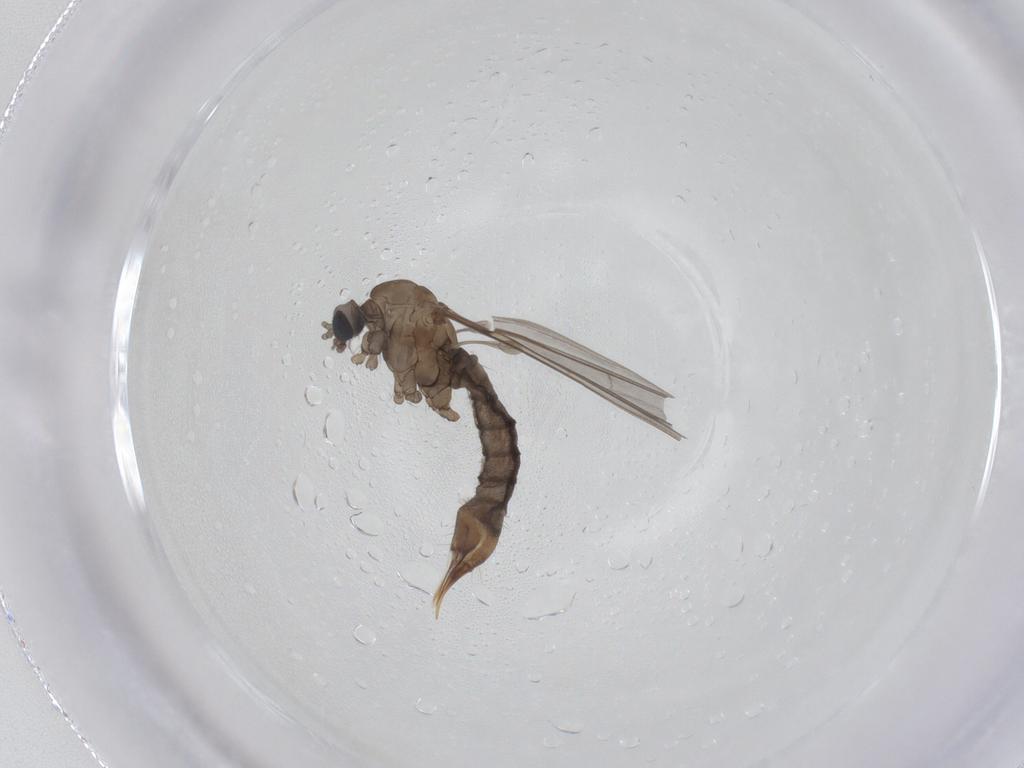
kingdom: Animalia
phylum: Arthropoda
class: Insecta
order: Diptera
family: Limoniidae
